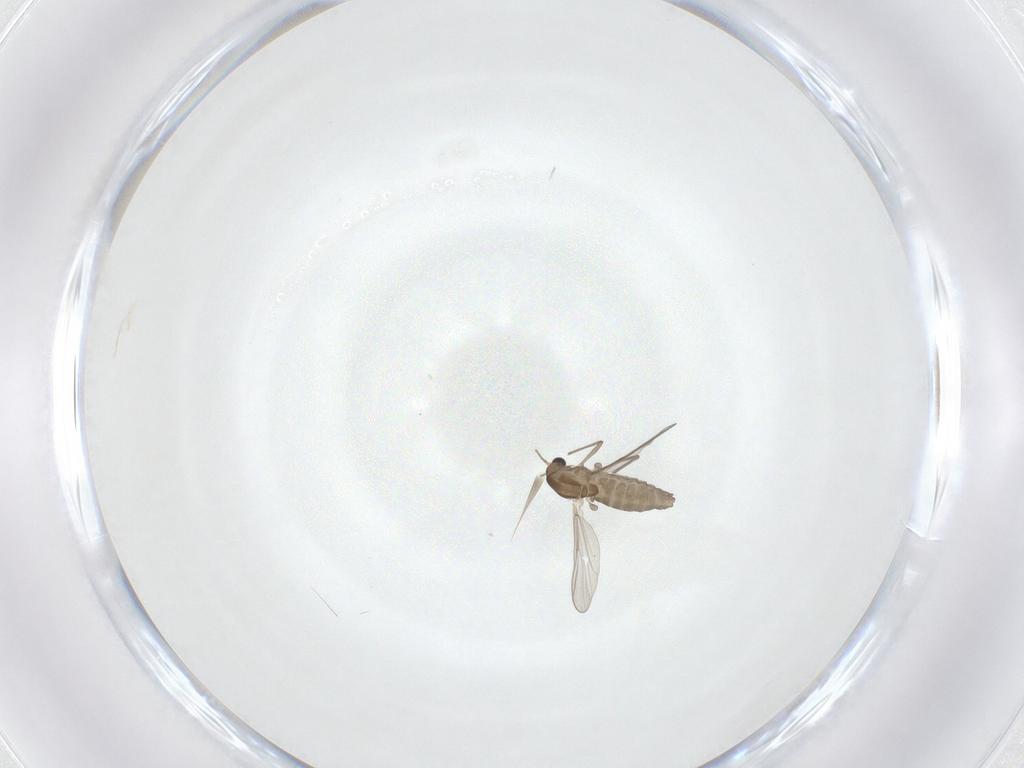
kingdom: Animalia
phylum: Arthropoda
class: Insecta
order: Diptera
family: Chironomidae
